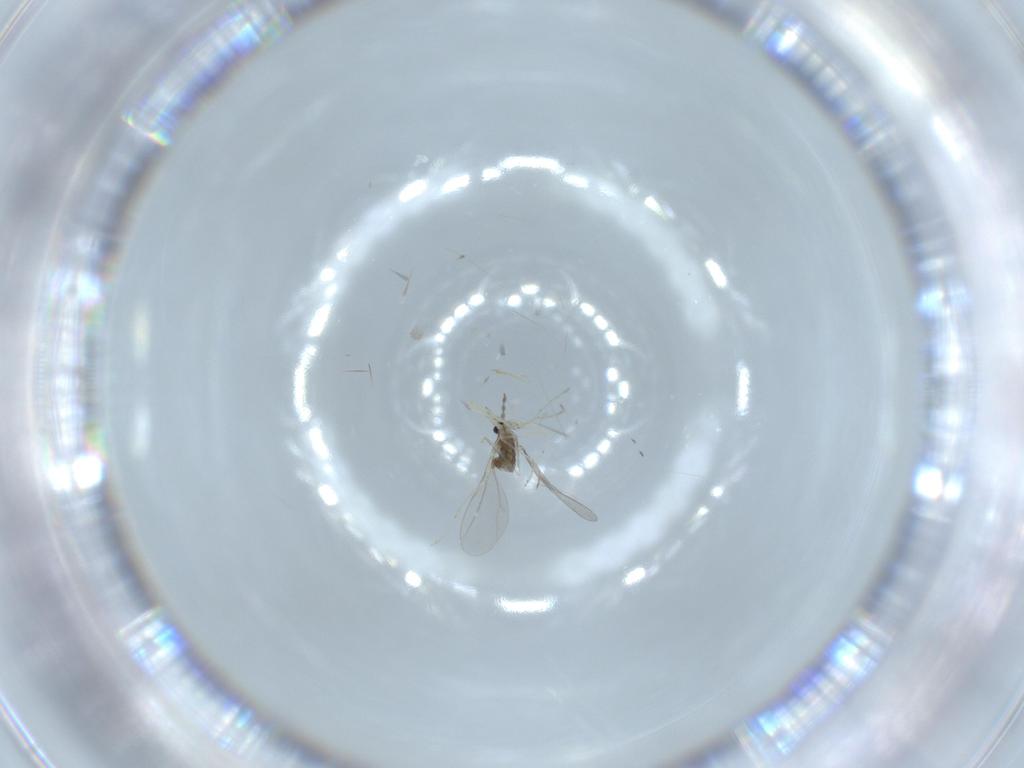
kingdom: Animalia
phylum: Arthropoda
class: Insecta
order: Diptera
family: Cecidomyiidae
